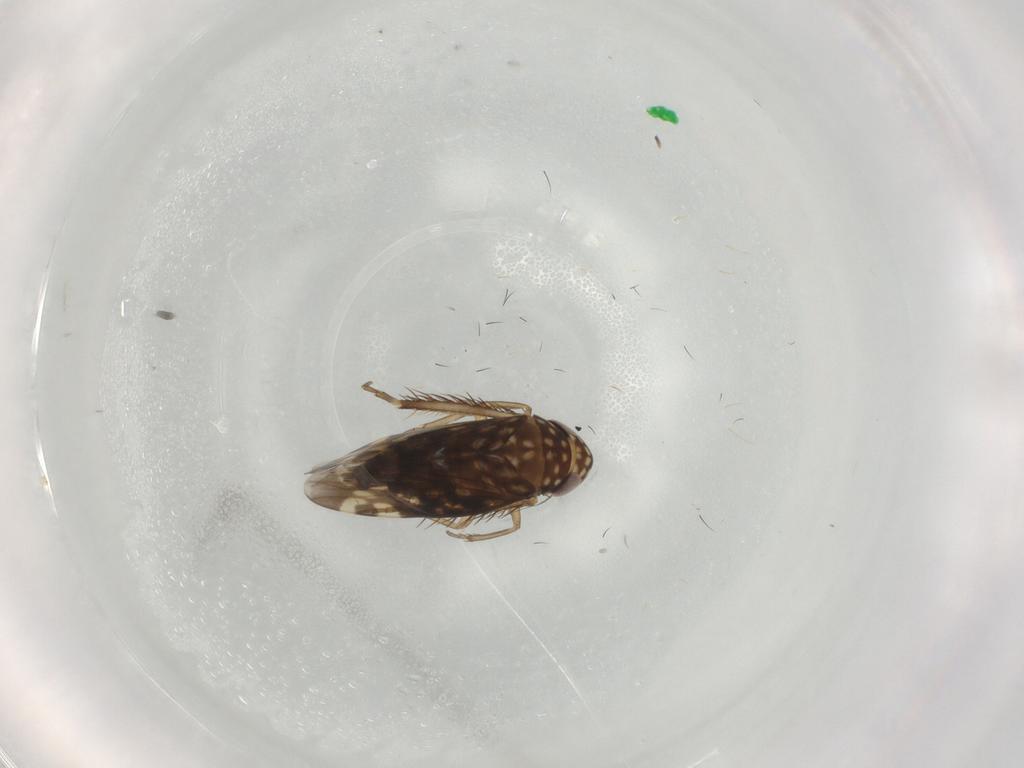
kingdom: Animalia
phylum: Arthropoda
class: Insecta
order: Hemiptera
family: Cicadellidae
